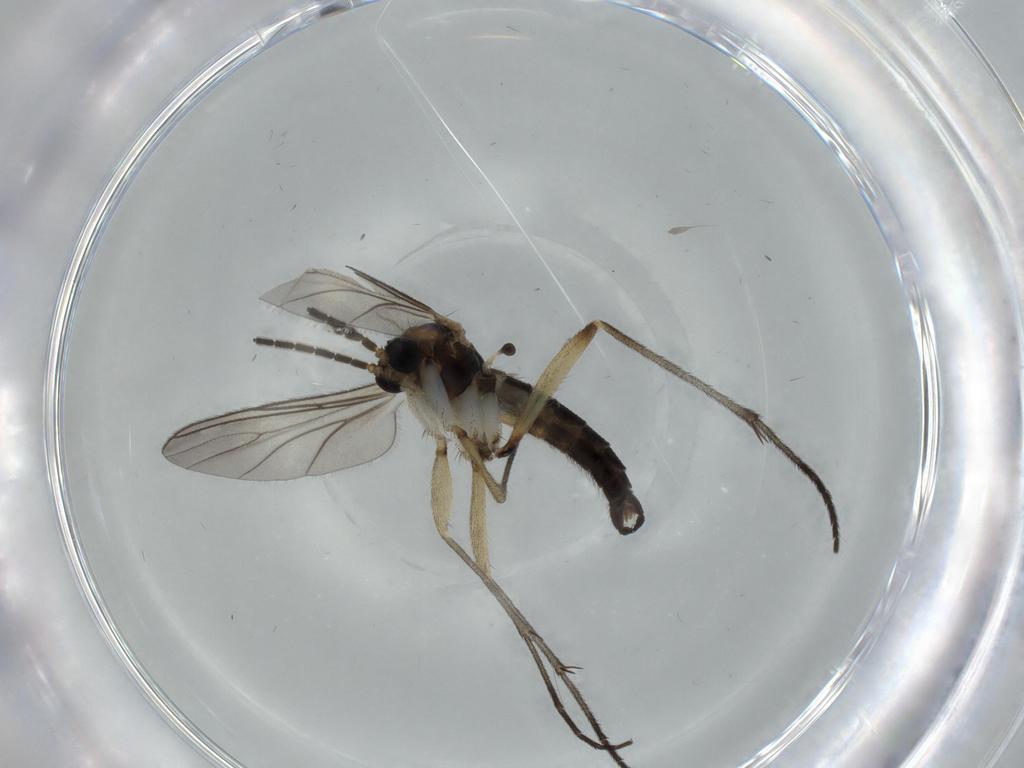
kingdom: Animalia
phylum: Arthropoda
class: Insecta
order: Diptera
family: Sciaridae
